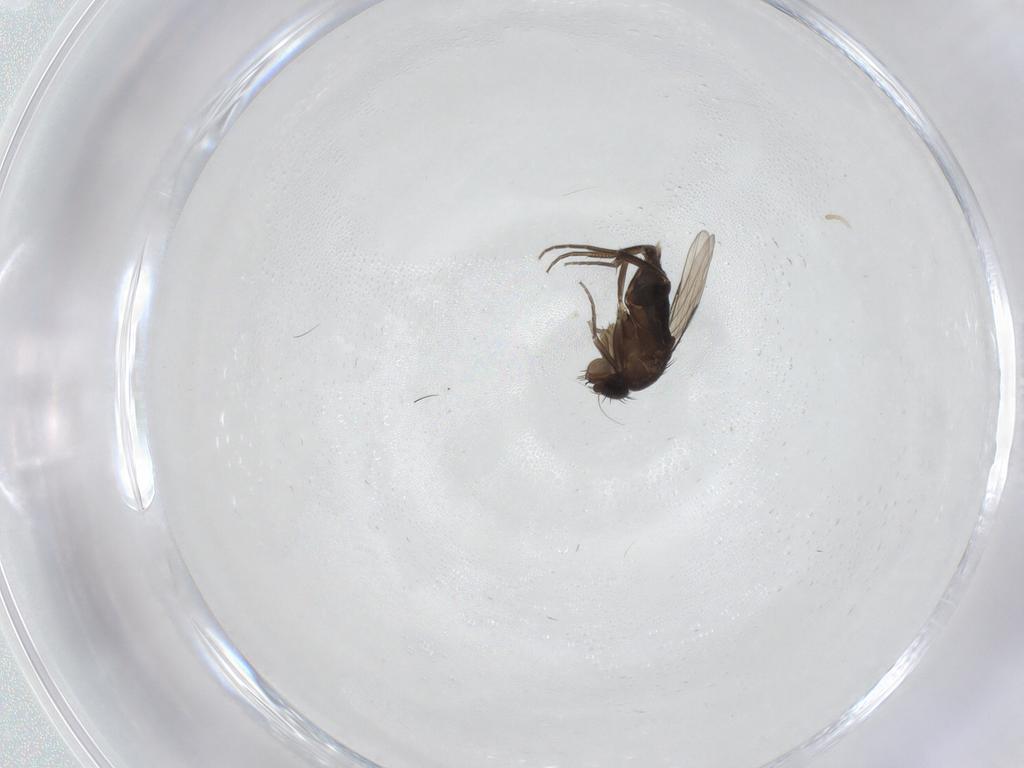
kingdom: Animalia
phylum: Arthropoda
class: Insecta
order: Diptera
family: Phoridae
